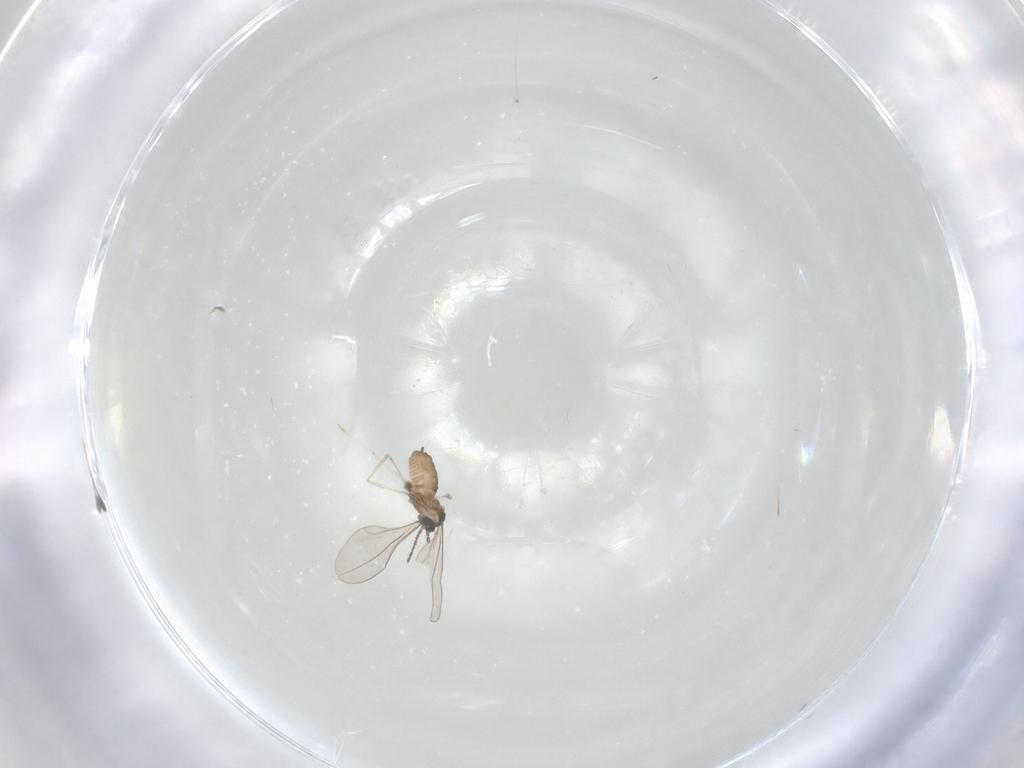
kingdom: Animalia
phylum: Arthropoda
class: Insecta
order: Diptera
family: Cecidomyiidae
